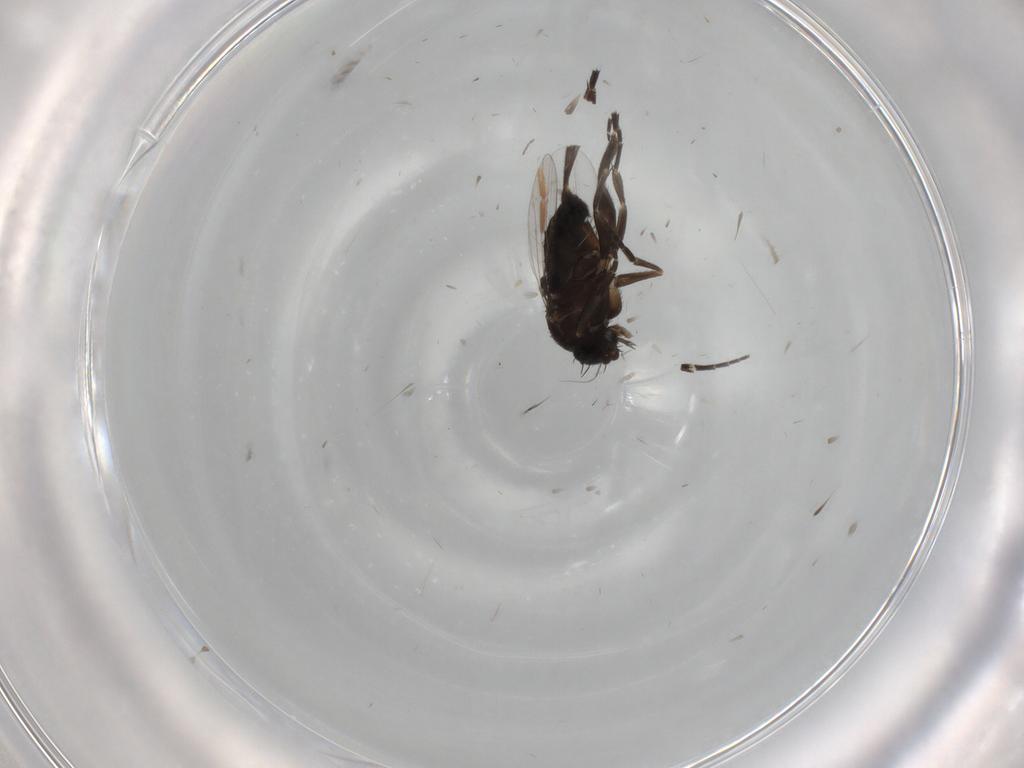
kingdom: Animalia
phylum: Arthropoda
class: Insecta
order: Diptera
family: Phoridae
